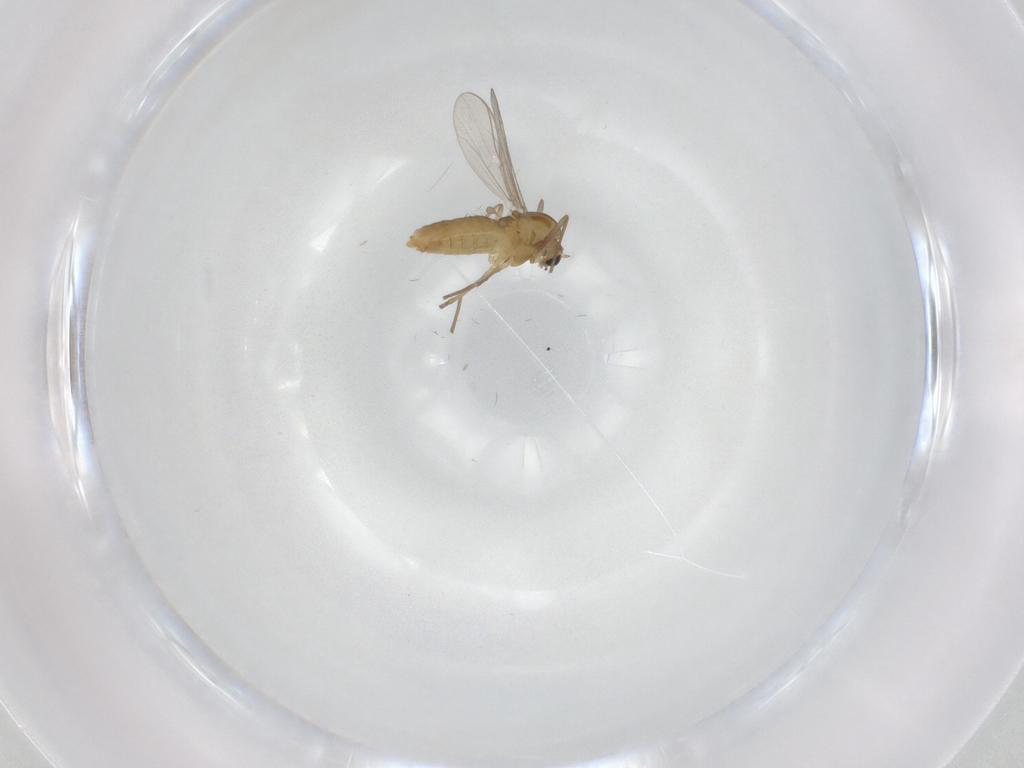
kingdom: Animalia
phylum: Arthropoda
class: Insecta
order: Diptera
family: Chironomidae
